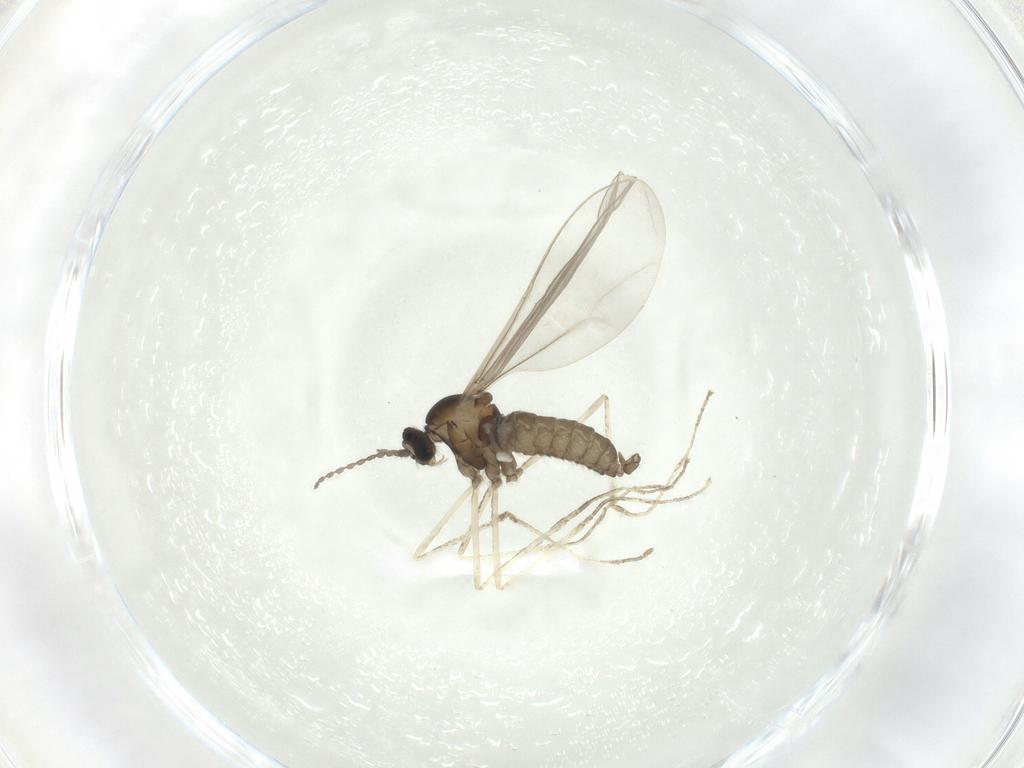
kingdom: Animalia
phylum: Arthropoda
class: Insecta
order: Diptera
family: Cecidomyiidae
